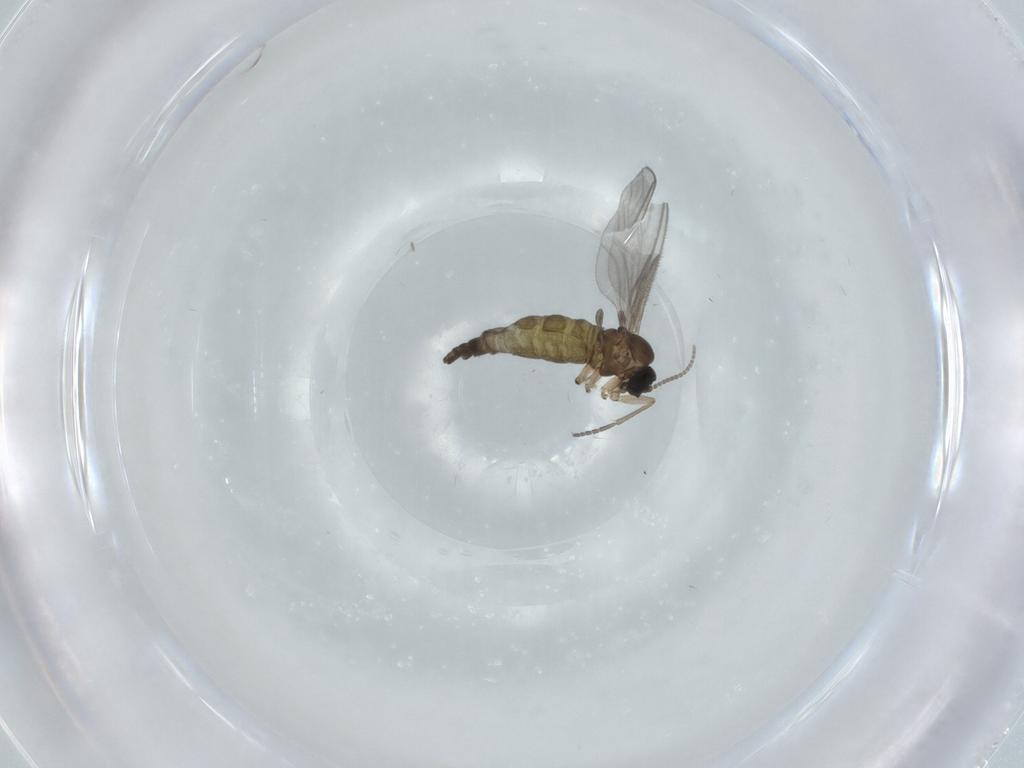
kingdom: Animalia
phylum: Arthropoda
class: Insecta
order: Diptera
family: Sciaridae
